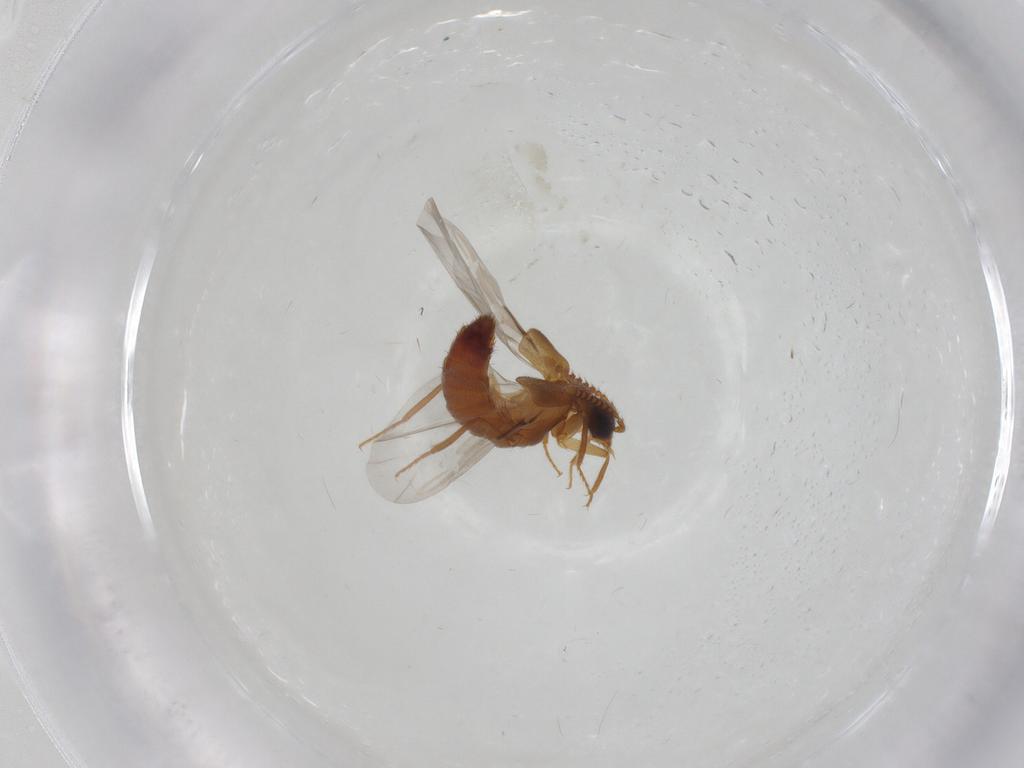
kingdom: Animalia
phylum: Arthropoda
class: Insecta
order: Coleoptera
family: Staphylinidae
